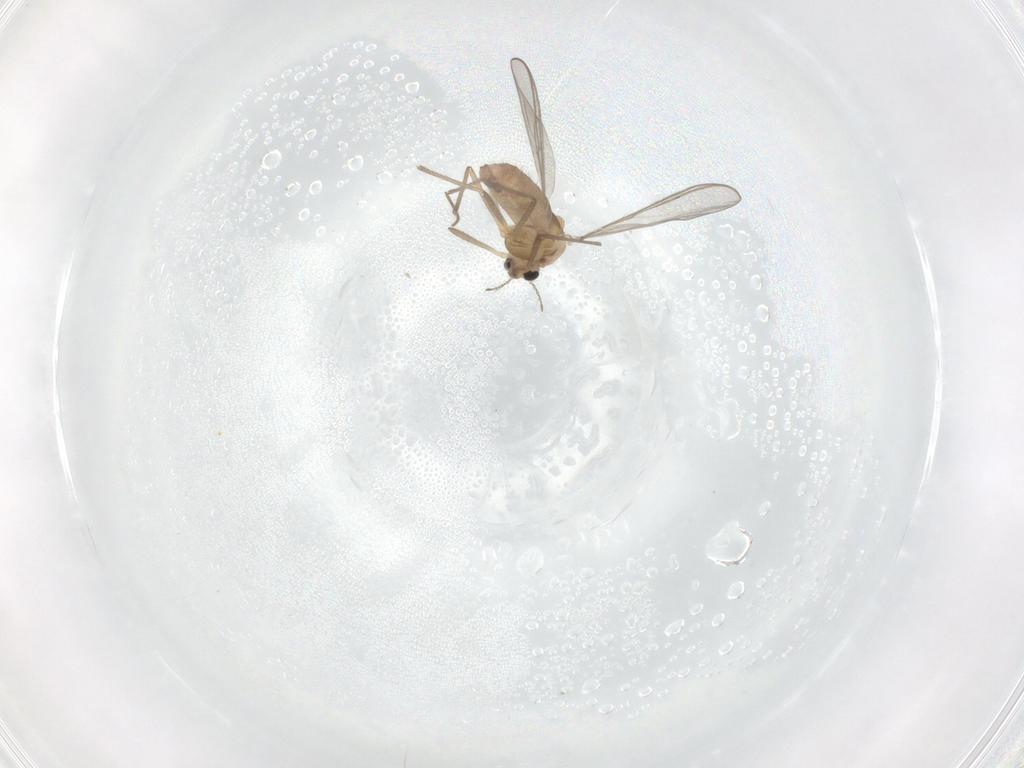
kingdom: Animalia
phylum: Arthropoda
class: Insecta
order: Diptera
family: Chironomidae
